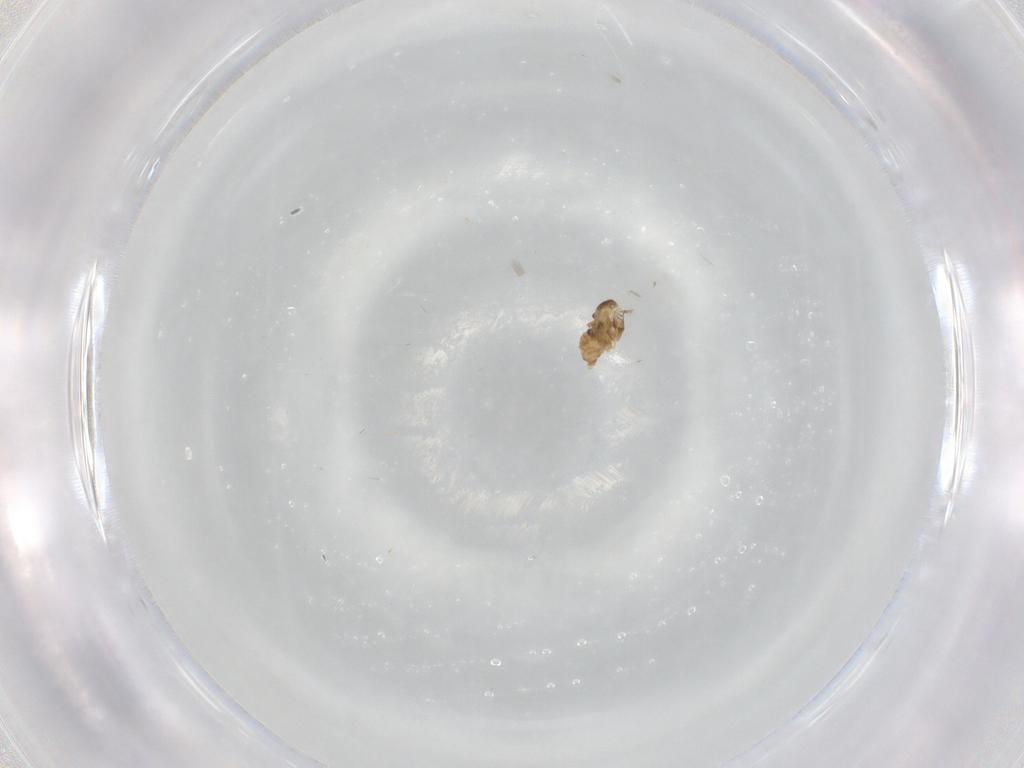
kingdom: Animalia
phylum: Arthropoda
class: Insecta
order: Diptera
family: Cecidomyiidae
